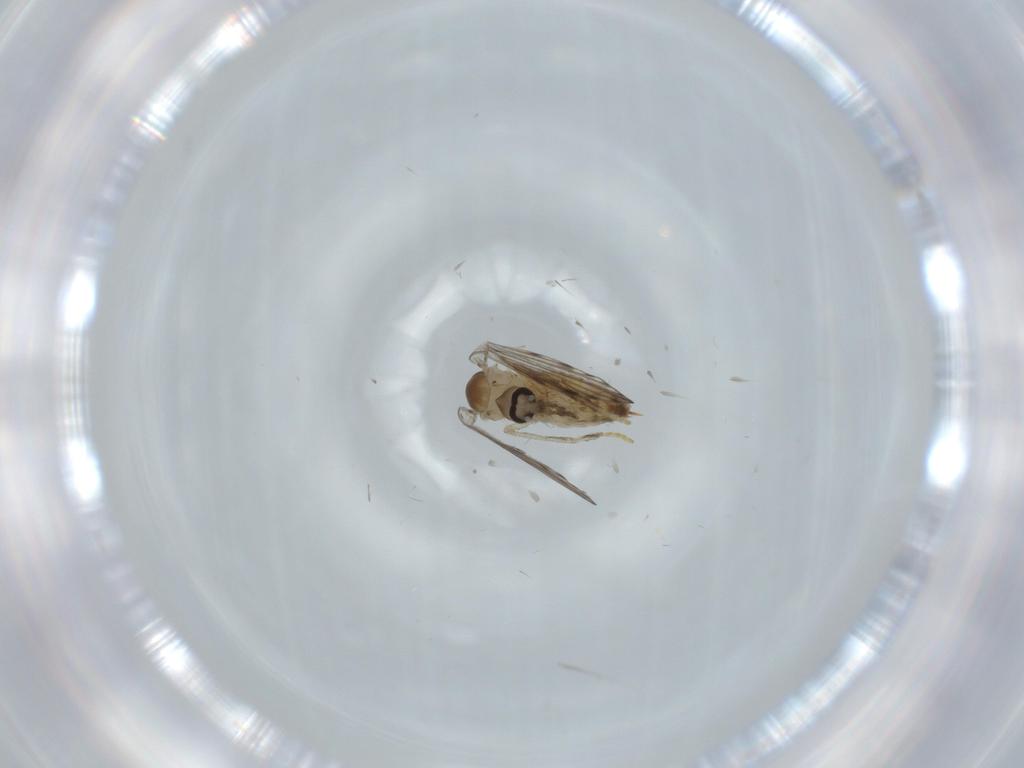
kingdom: Animalia
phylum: Arthropoda
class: Insecta
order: Diptera
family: Psychodidae
